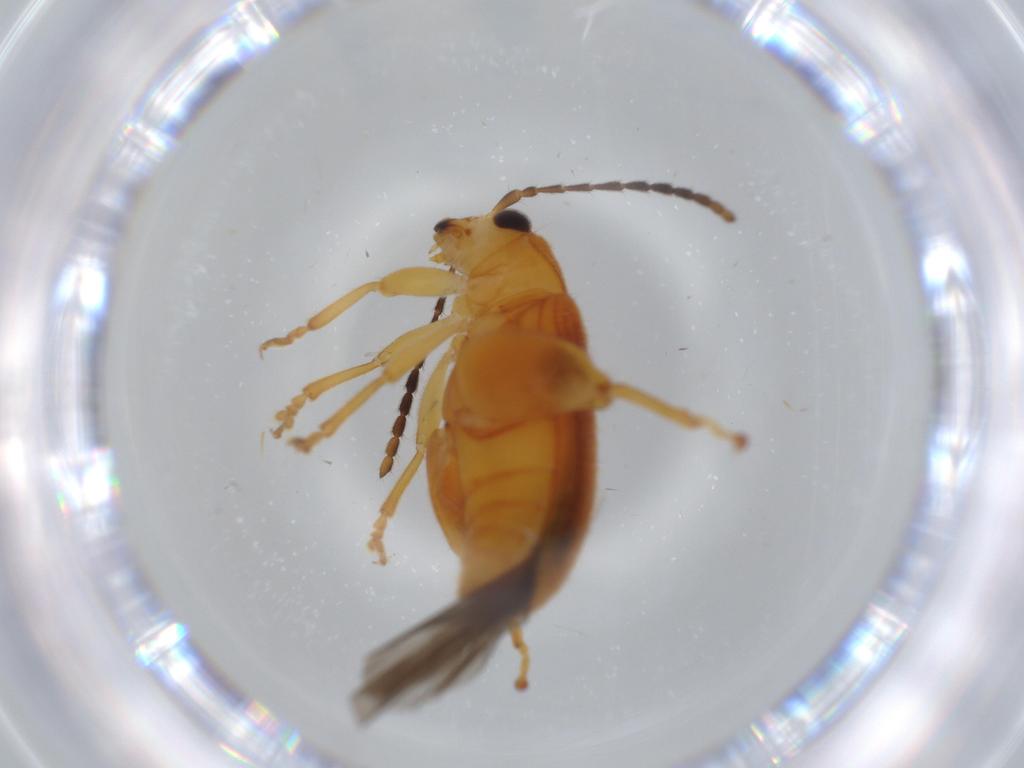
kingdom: Animalia
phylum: Arthropoda
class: Insecta
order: Coleoptera
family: Chrysomelidae
